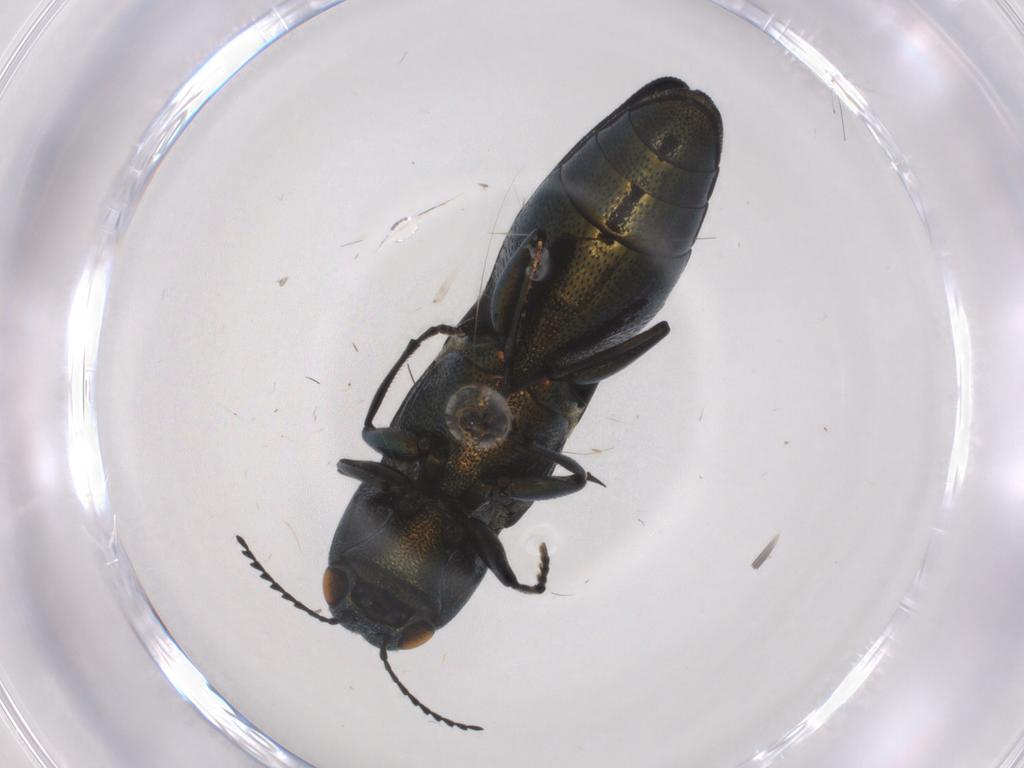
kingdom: Animalia
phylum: Arthropoda
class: Insecta
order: Coleoptera
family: Buprestidae
